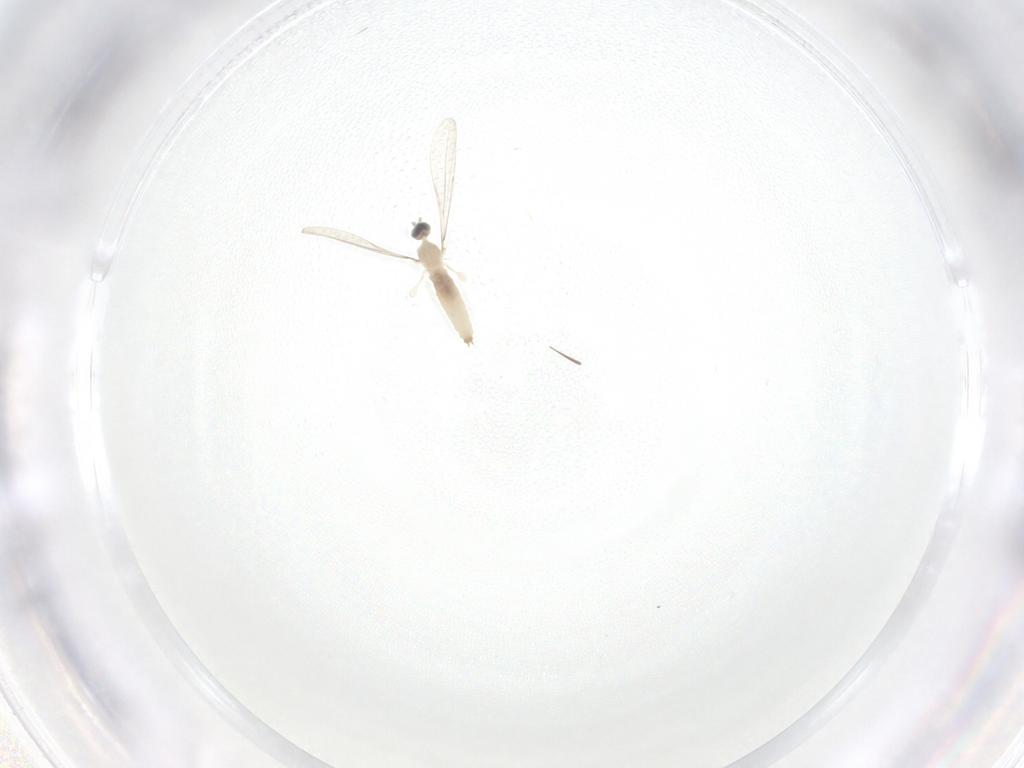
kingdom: Animalia
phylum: Arthropoda
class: Insecta
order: Diptera
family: Cecidomyiidae
